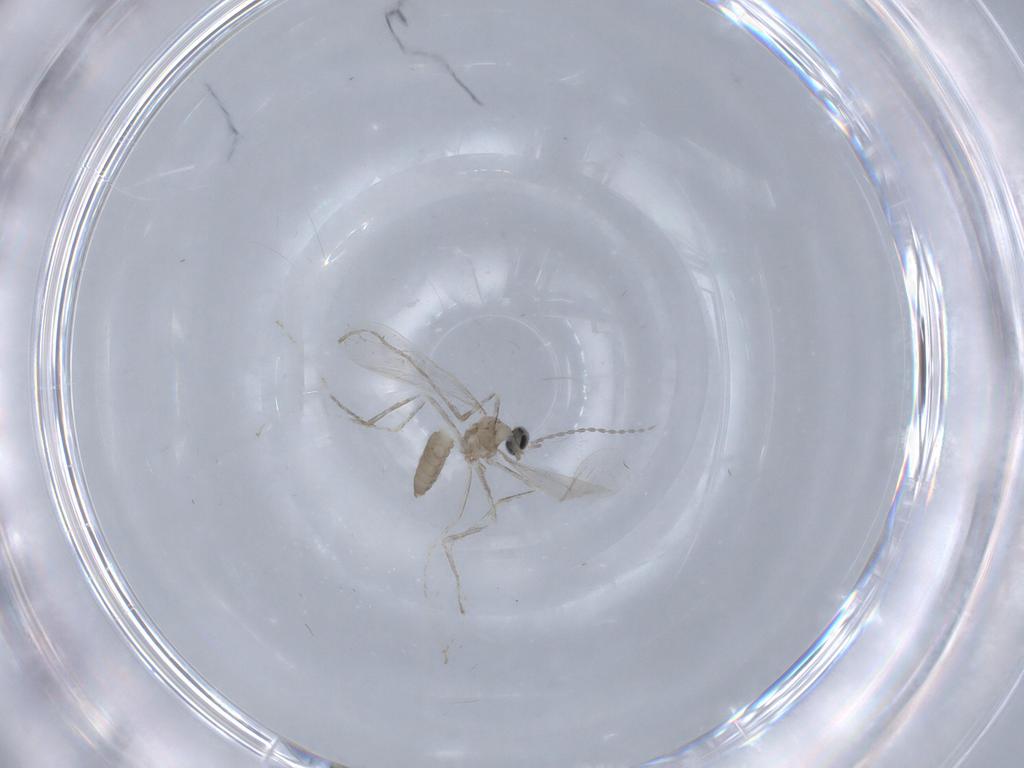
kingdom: Animalia
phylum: Arthropoda
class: Insecta
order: Diptera
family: Cecidomyiidae
